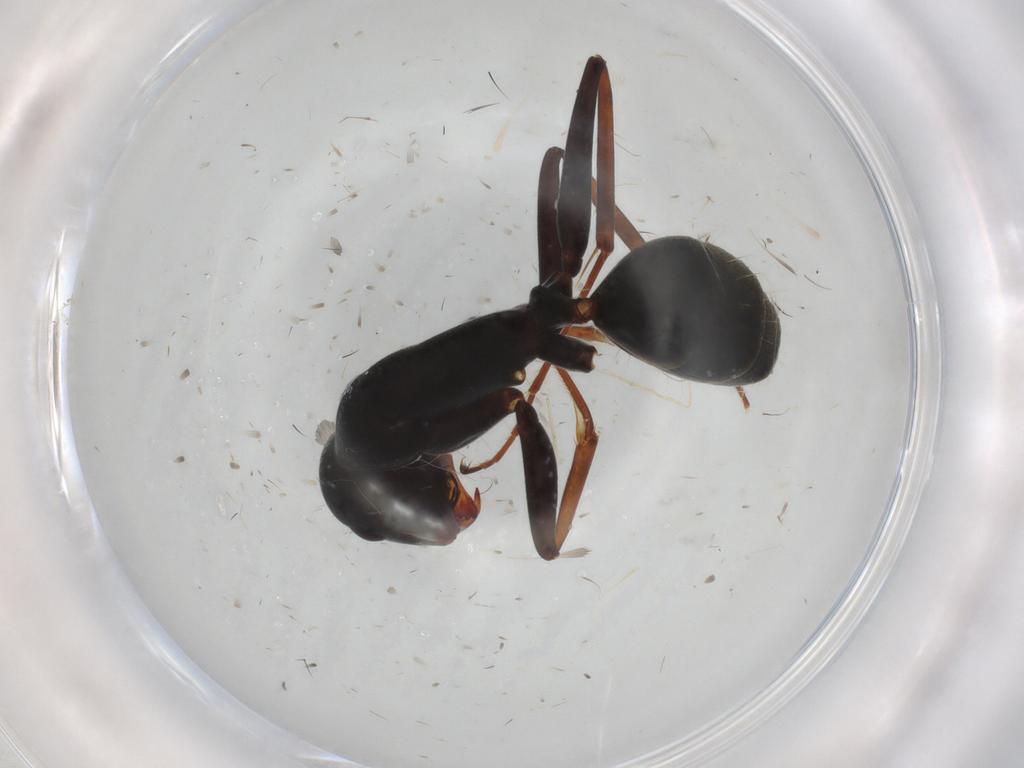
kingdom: Animalia
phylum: Arthropoda
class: Insecta
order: Hymenoptera
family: Formicidae
